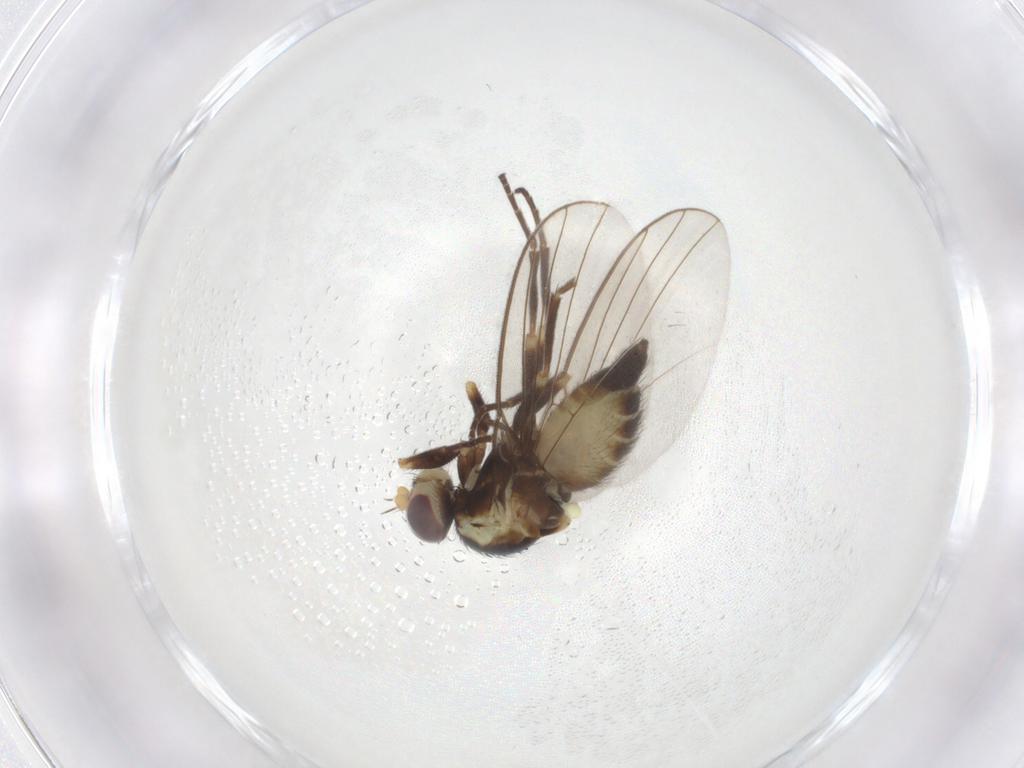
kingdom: Animalia
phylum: Arthropoda
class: Insecta
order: Diptera
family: Agromyzidae
